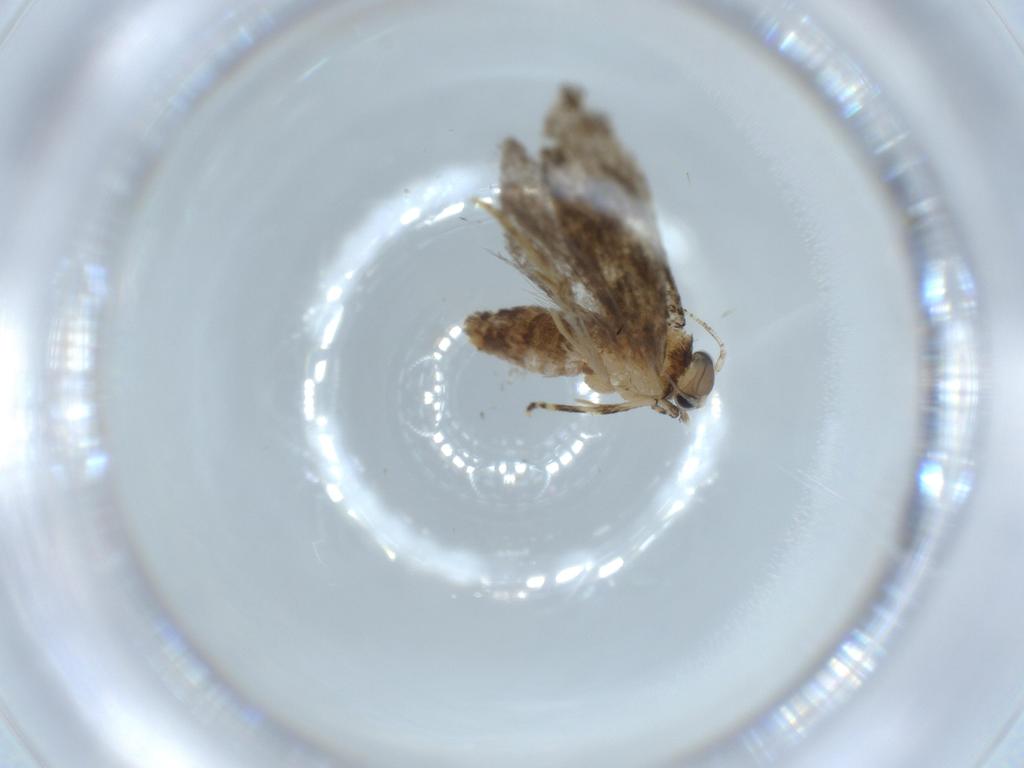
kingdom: Animalia
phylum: Arthropoda
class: Insecta
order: Lepidoptera
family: Tineidae
